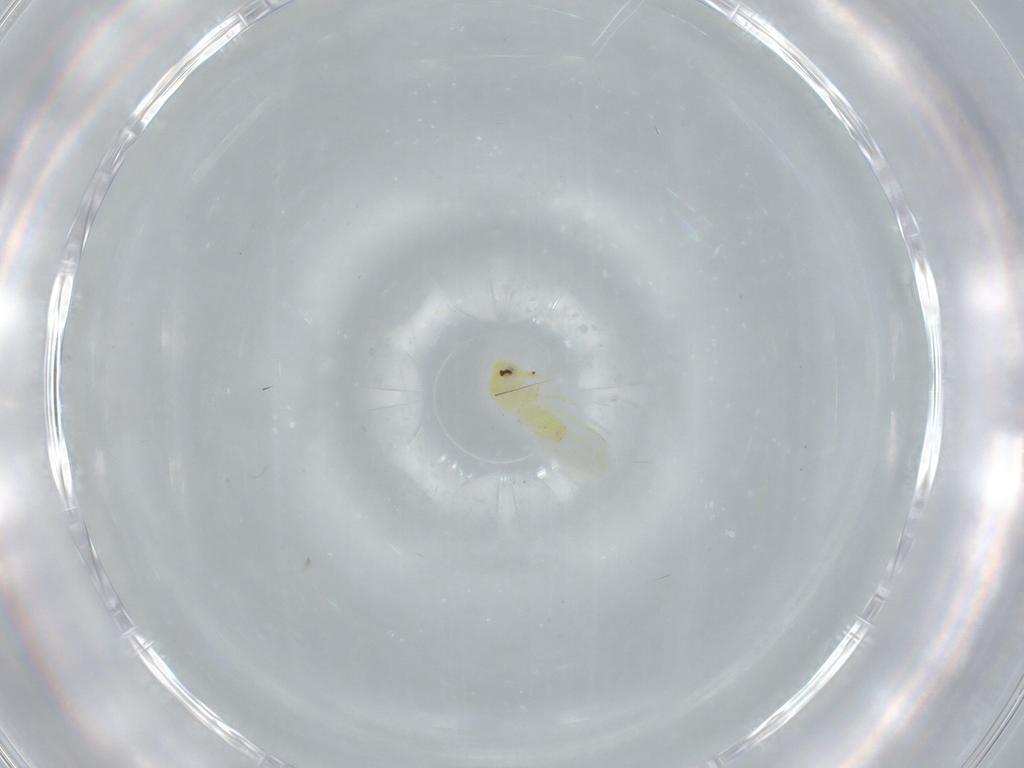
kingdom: Animalia
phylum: Arthropoda
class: Insecta
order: Hemiptera
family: Aleyrodidae
